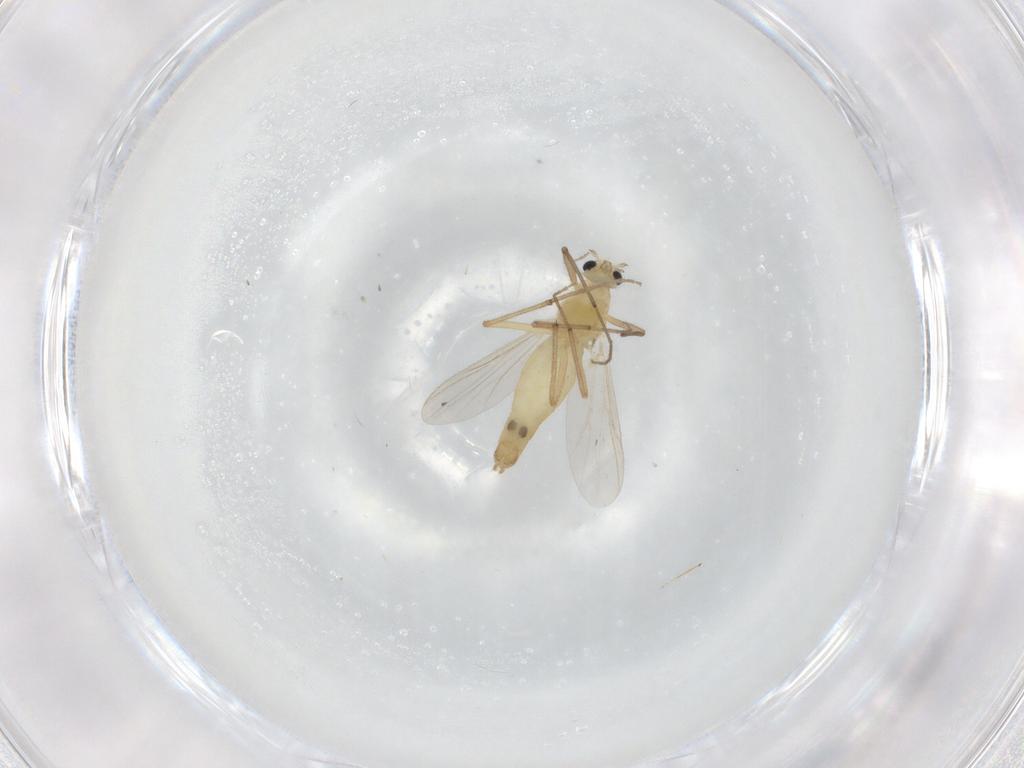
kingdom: Animalia
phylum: Arthropoda
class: Insecta
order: Diptera
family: Chironomidae
